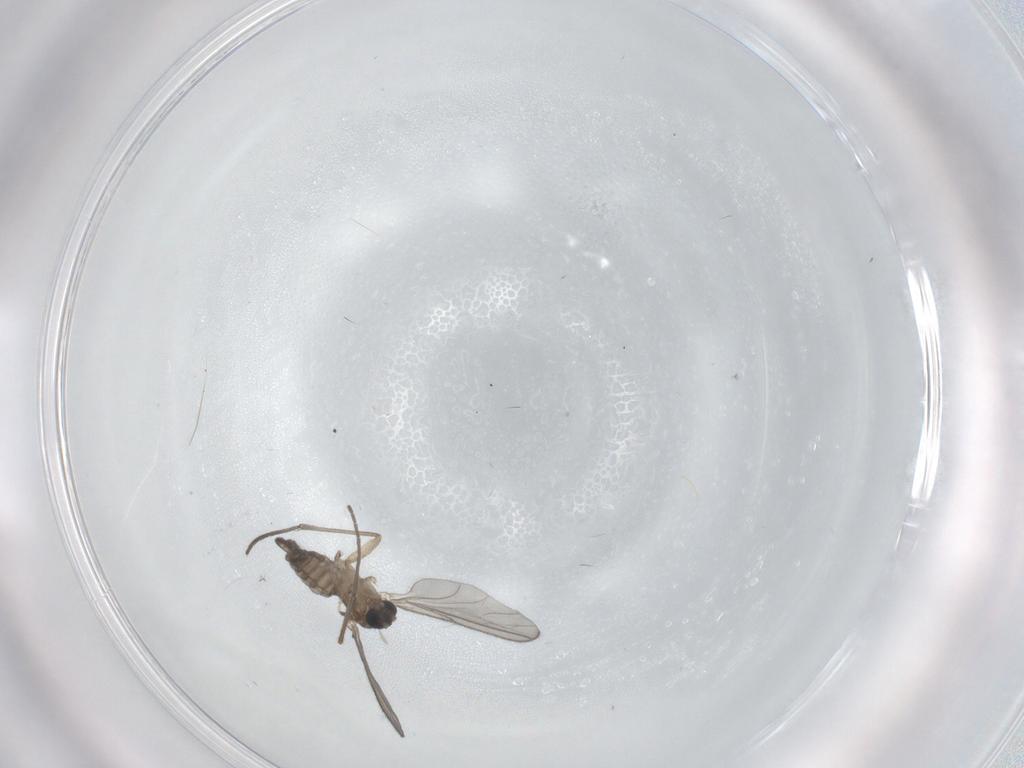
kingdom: Animalia
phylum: Arthropoda
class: Insecta
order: Diptera
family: Sciaridae
